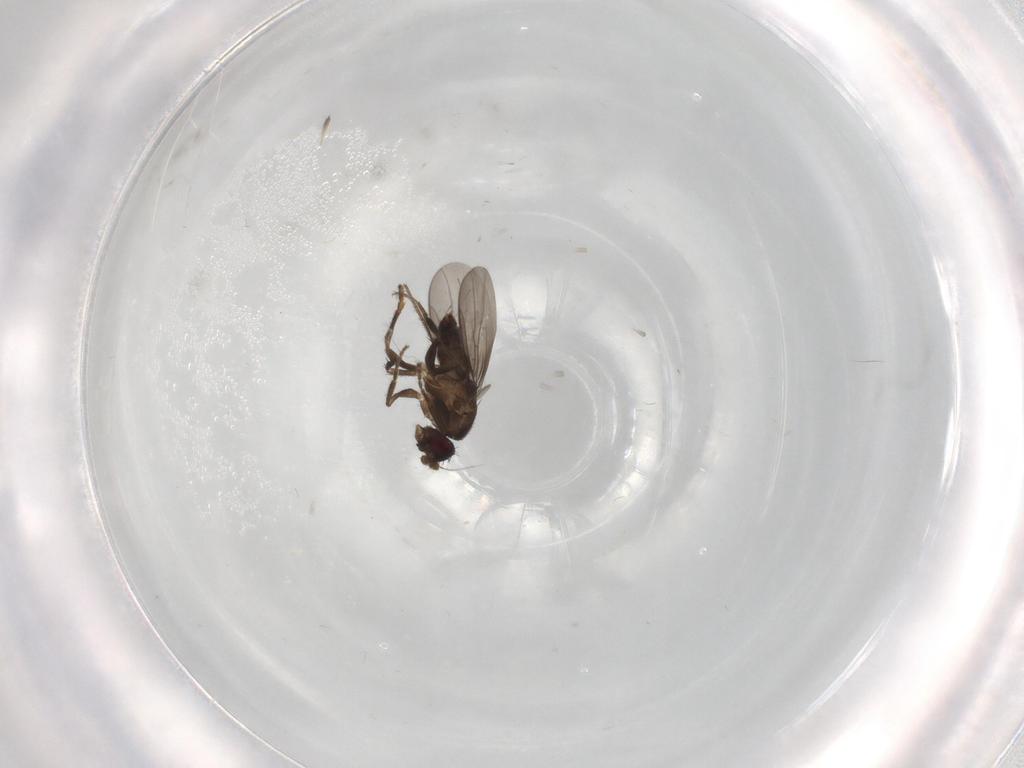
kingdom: Animalia
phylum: Arthropoda
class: Insecta
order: Diptera
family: Sphaeroceridae
